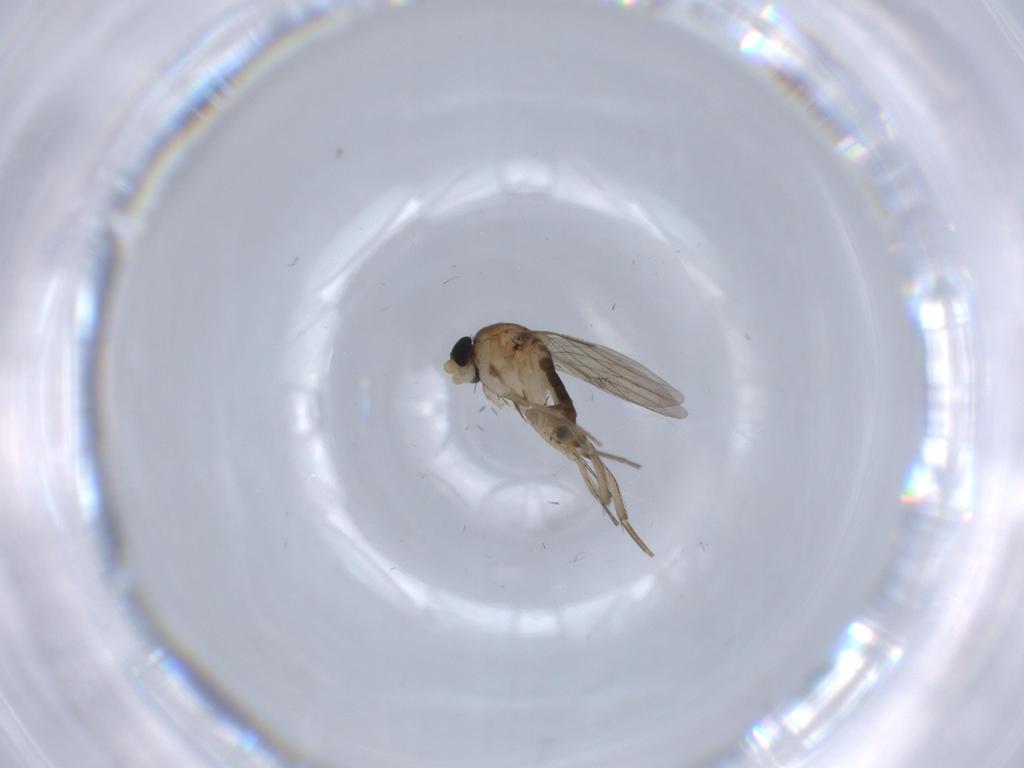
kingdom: Animalia
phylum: Arthropoda
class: Insecta
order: Diptera
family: Phoridae
